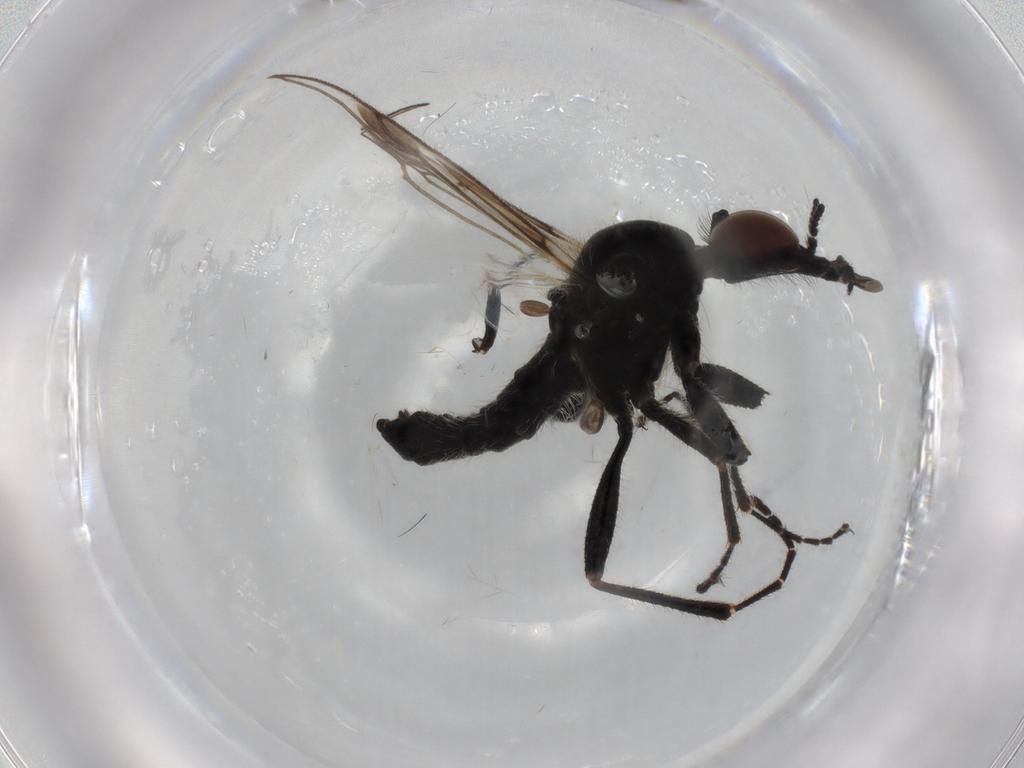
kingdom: Animalia
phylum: Arthropoda
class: Insecta
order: Diptera
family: Bibionidae
